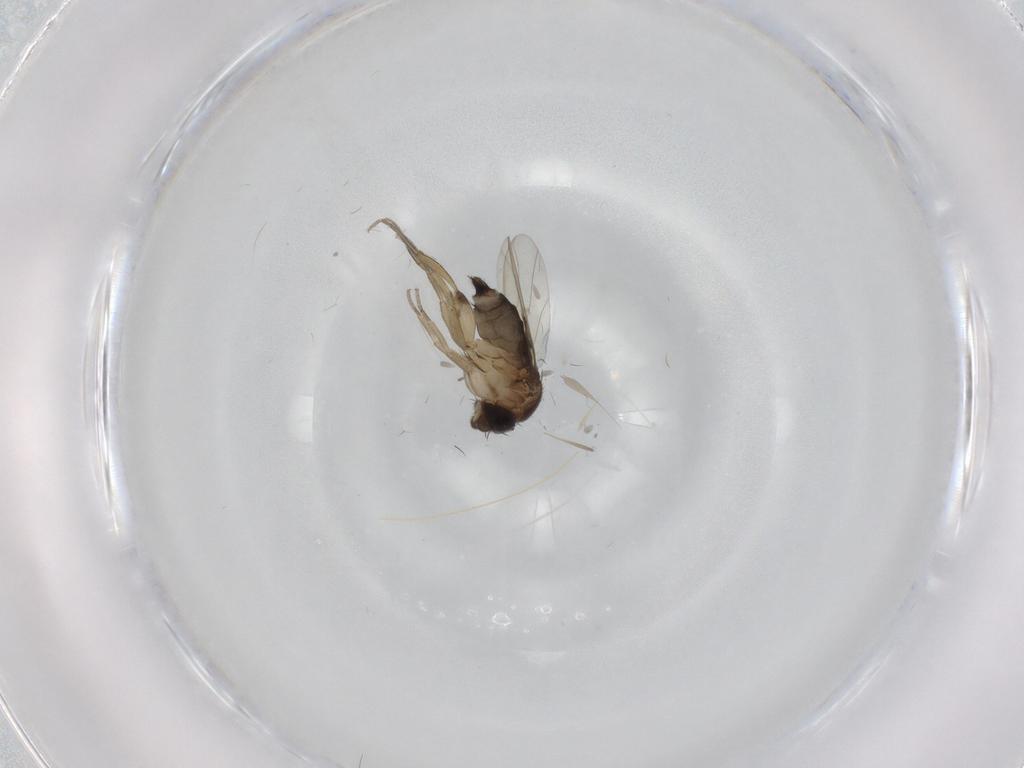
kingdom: Animalia
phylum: Arthropoda
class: Insecta
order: Diptera
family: Phoridae
